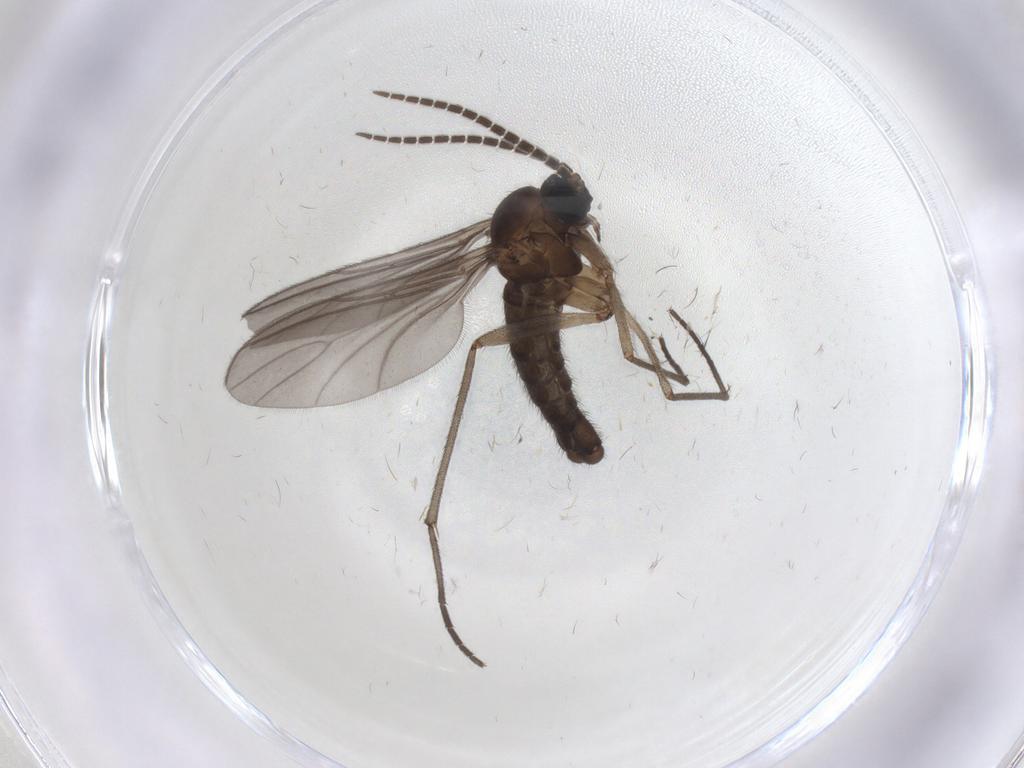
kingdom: Animalia
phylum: Arthropoda
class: Insecta
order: Diptera
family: Sciaridae
